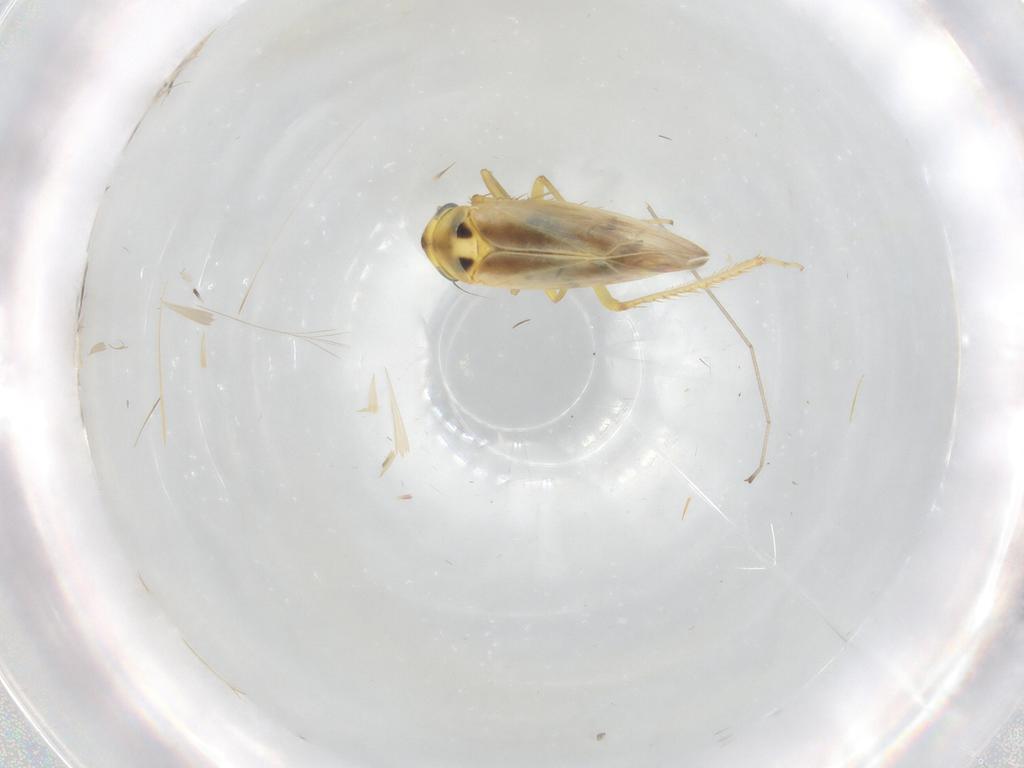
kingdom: Animalia
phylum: Arthropoda
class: Insecta
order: Hemiptera
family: Cicadellidae
